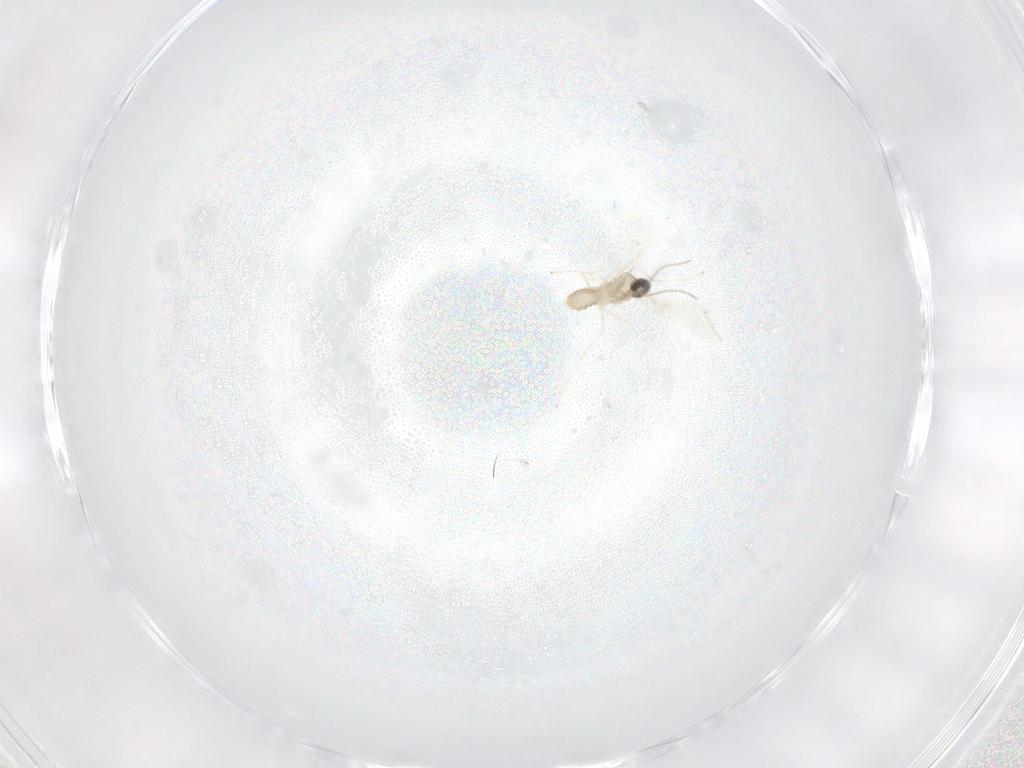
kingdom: Animalia
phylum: Arthropoda
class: Insecta
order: Diptera
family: Cecidomyiidae
